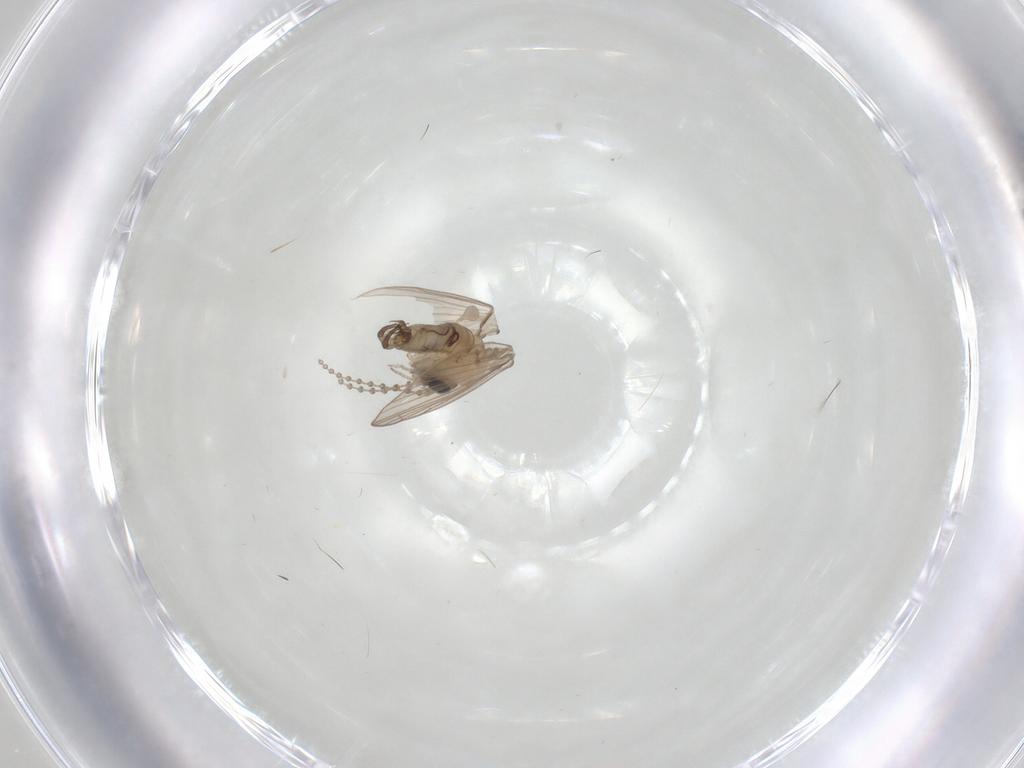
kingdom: Animalia
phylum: Arthropoda
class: Insecta
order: Diptera
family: Psychodidae
